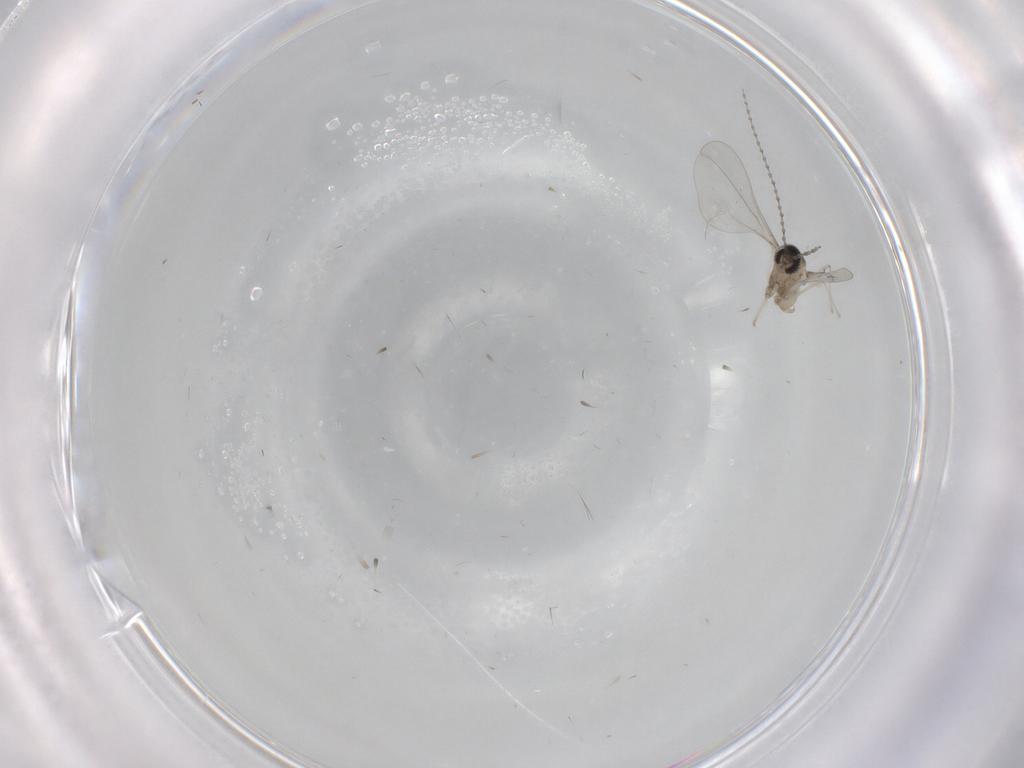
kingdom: Animalia
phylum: Arthropoda
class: Insecta
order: Diptera
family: Cecidomyiidae
